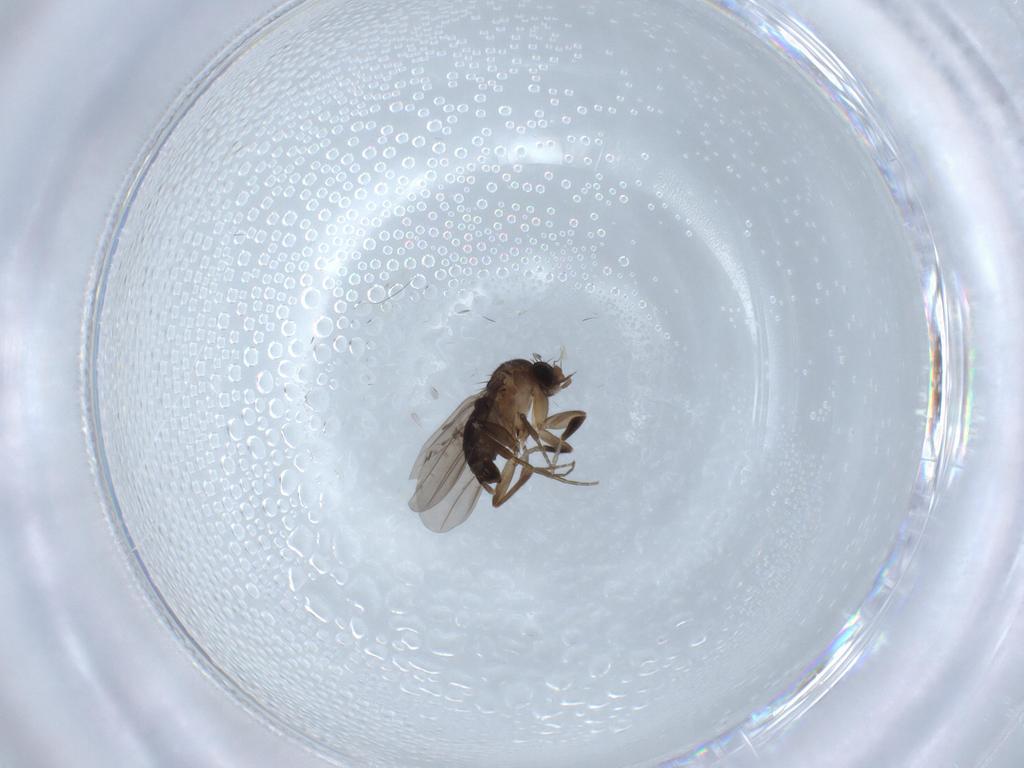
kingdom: Animalia
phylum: Arthropoda
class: Insecta
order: Diptera
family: Phoridae
